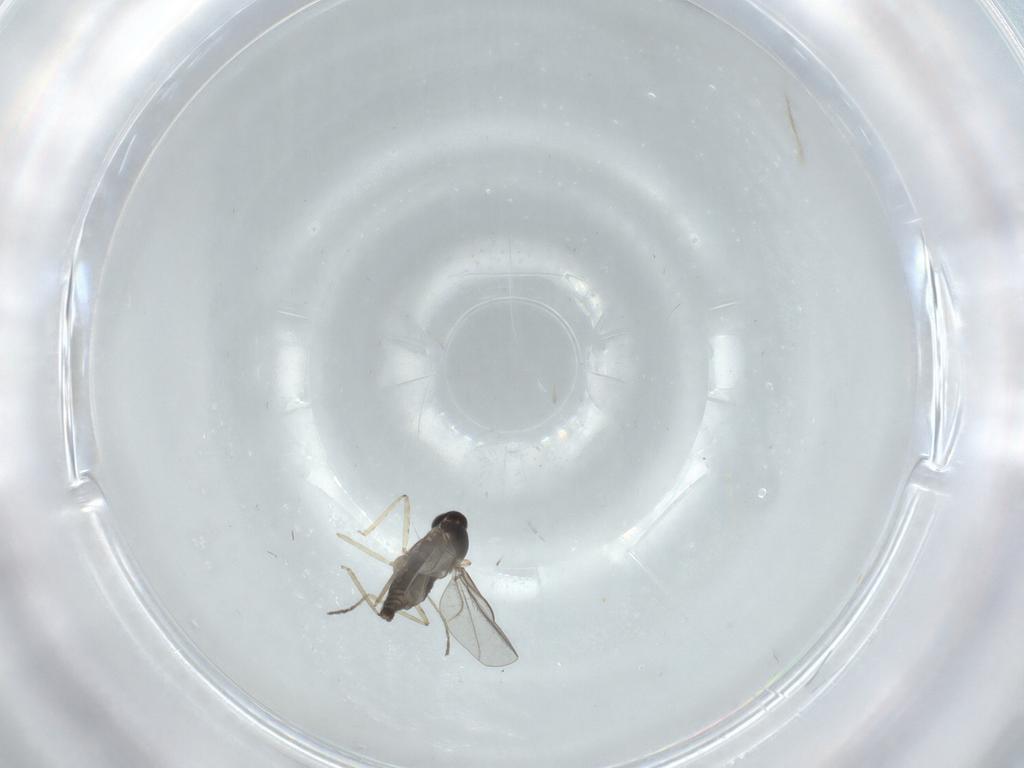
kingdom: Animalia
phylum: Arthropoda
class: Insecta
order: Diptera
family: Cecidomyiidae
